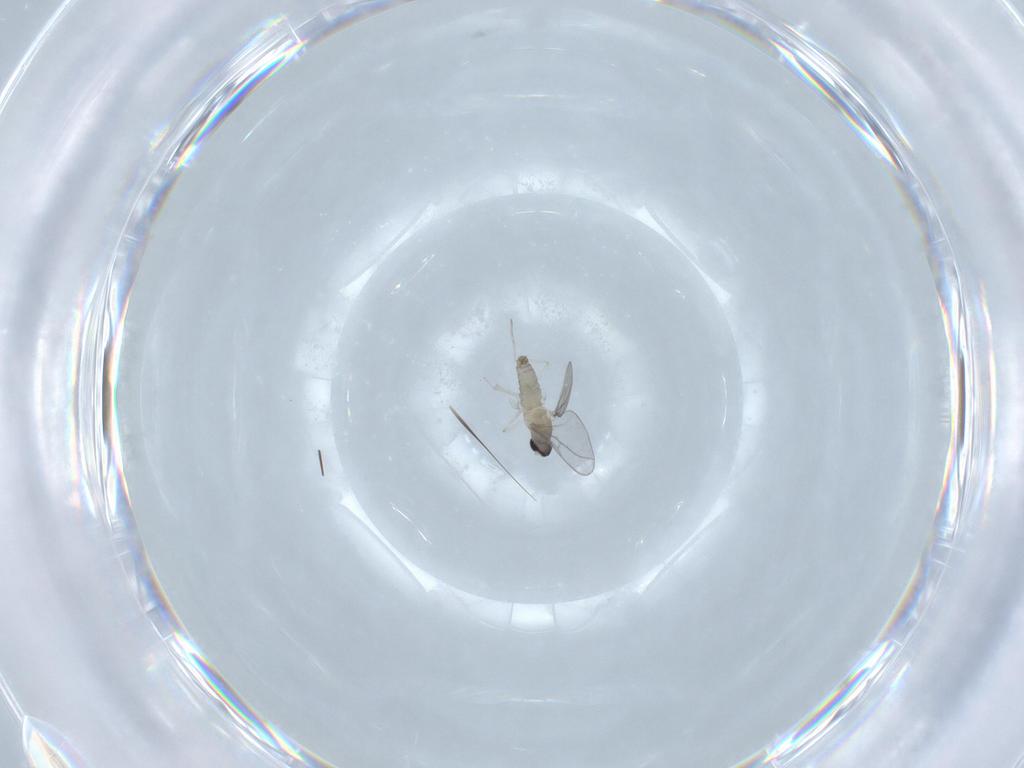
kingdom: Animalia
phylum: Arthropoda
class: Insecta
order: Diptera
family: Cecidomyiidae
